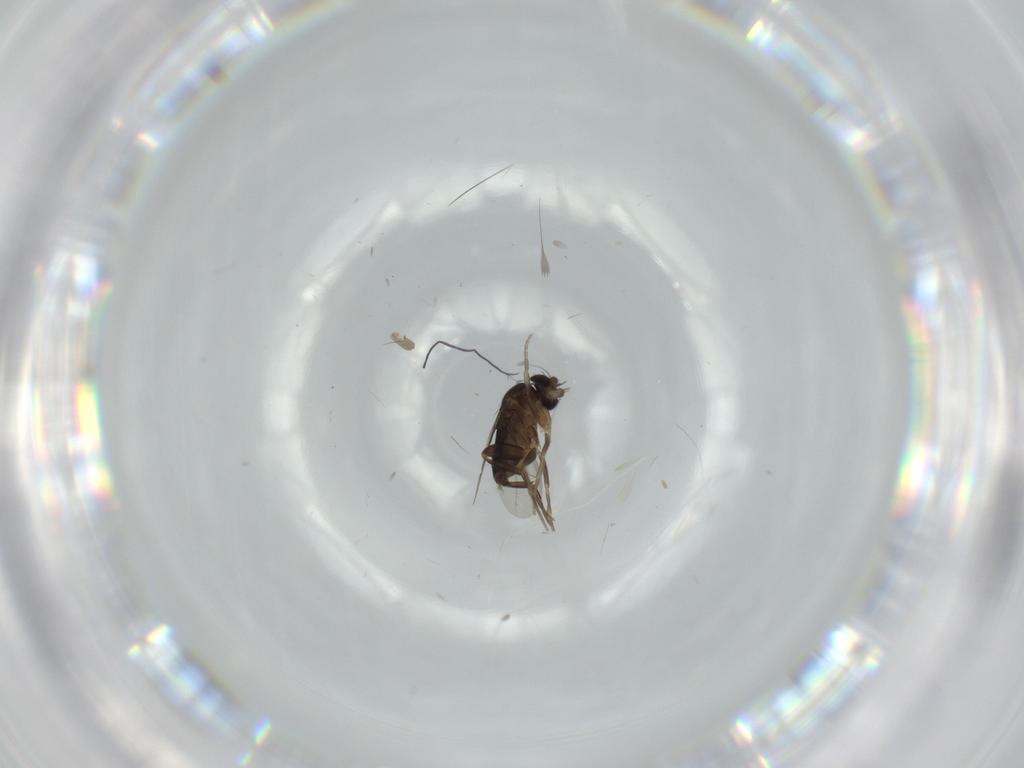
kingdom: Animalia
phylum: Arthropoda
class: Insecta
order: Diptera
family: Phoridae
